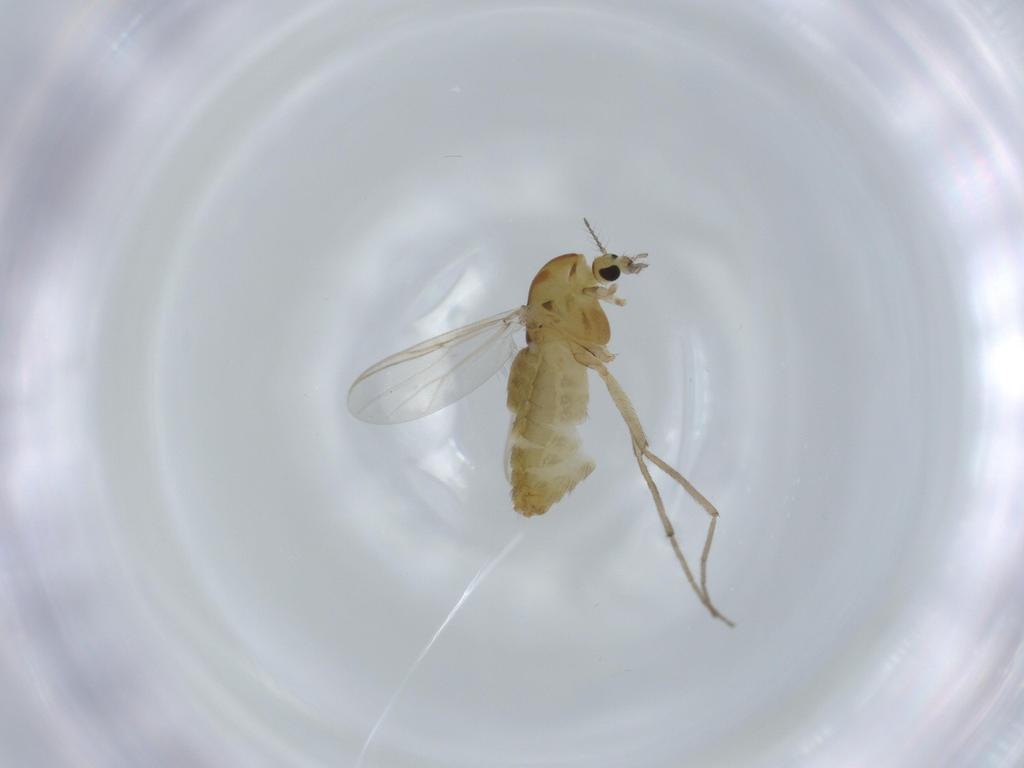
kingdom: Animalia
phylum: Arthropoda
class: Insecta
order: Diptera
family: Chironomidae
